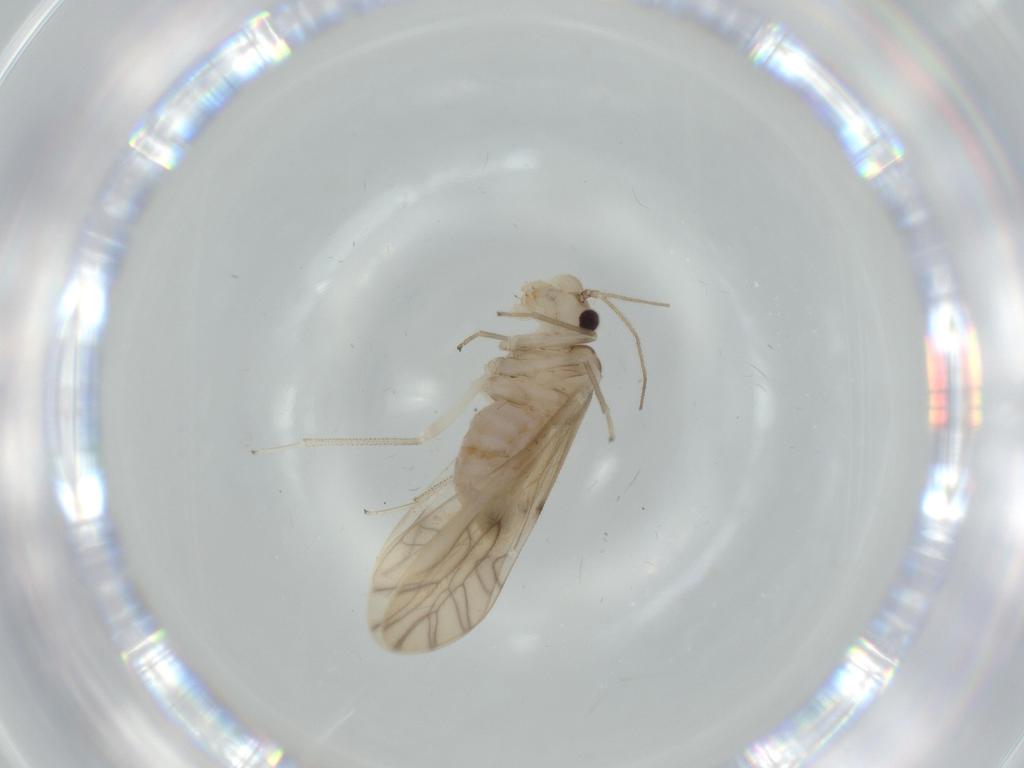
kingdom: Animalia
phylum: Arthropoda
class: Insecta
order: Psocodea
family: Caeciliusidae
